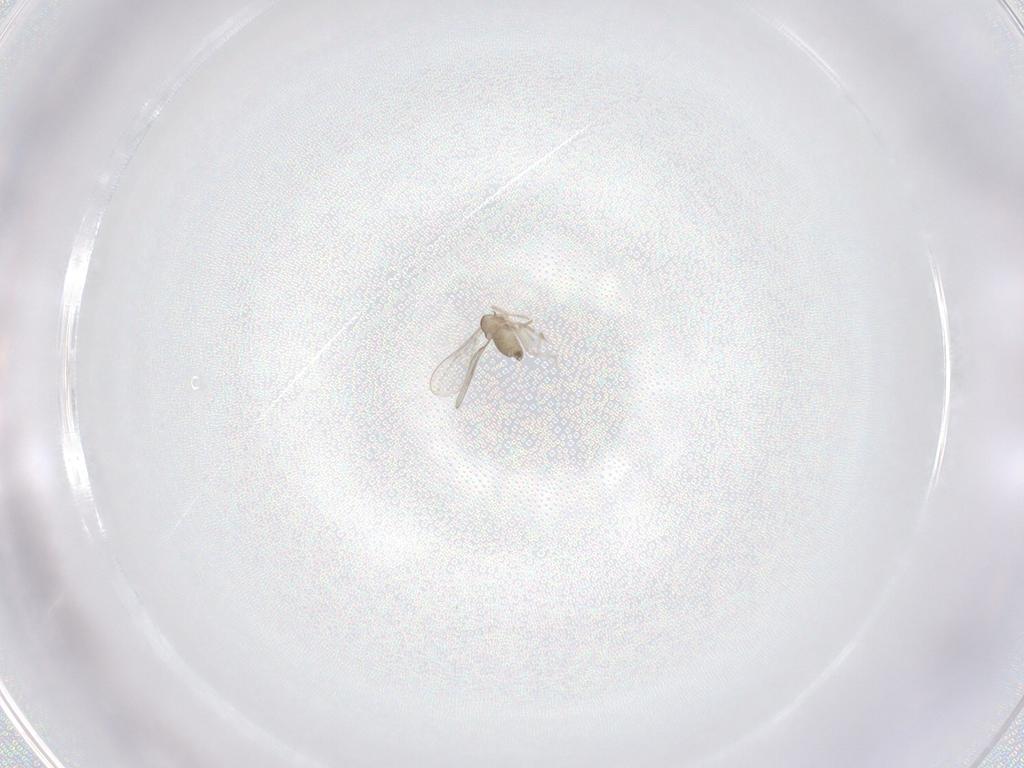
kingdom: Animalia
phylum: Arthropoda
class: Insecta
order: Diptera
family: Cecidomyiidae
